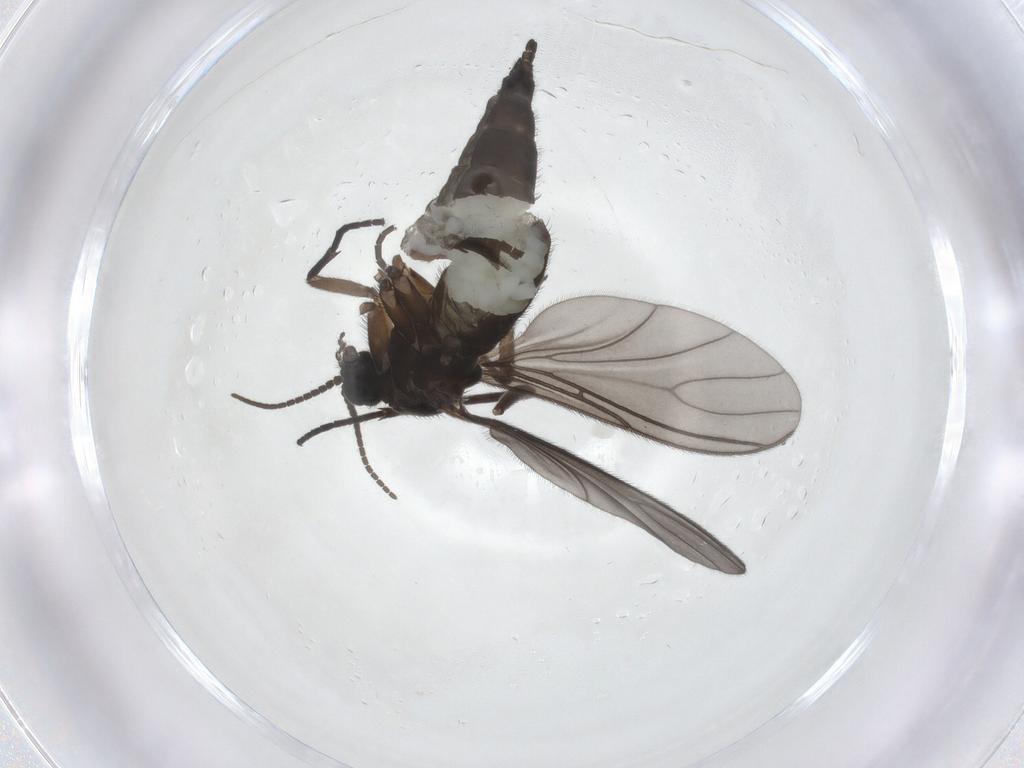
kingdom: Animalia
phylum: Arthropoda
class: Insecta
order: Diptera
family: Sciaridae
